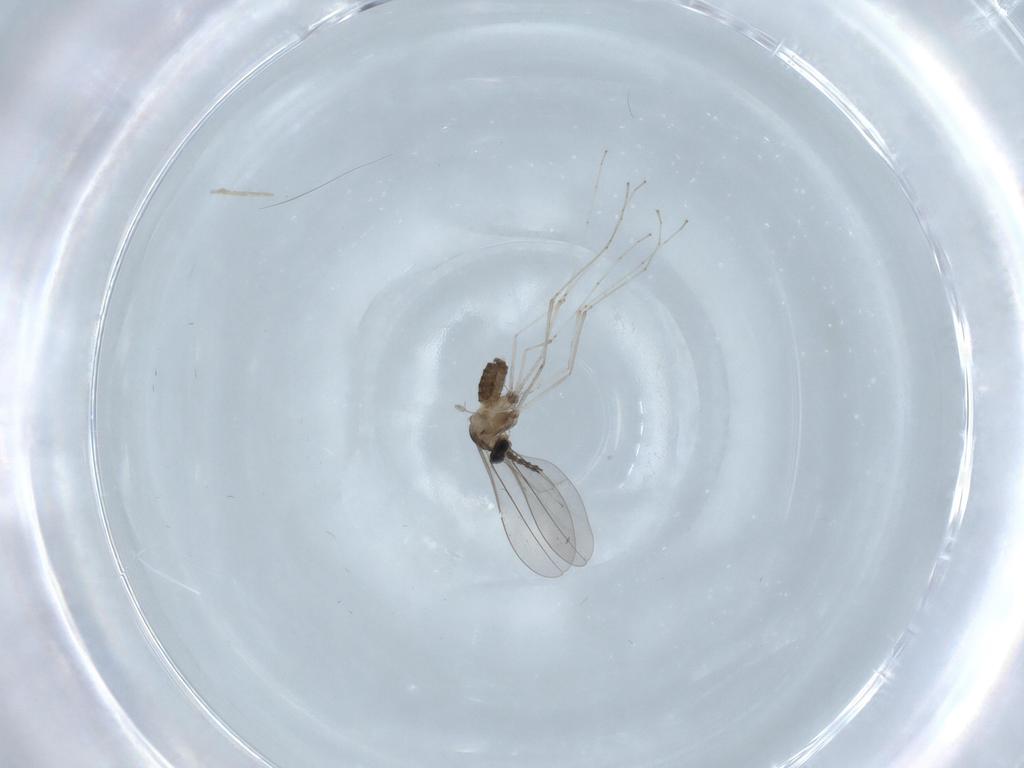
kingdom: Animalia
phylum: Arthropoda
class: Insecta
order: Diptera
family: Cecidomyiidae
